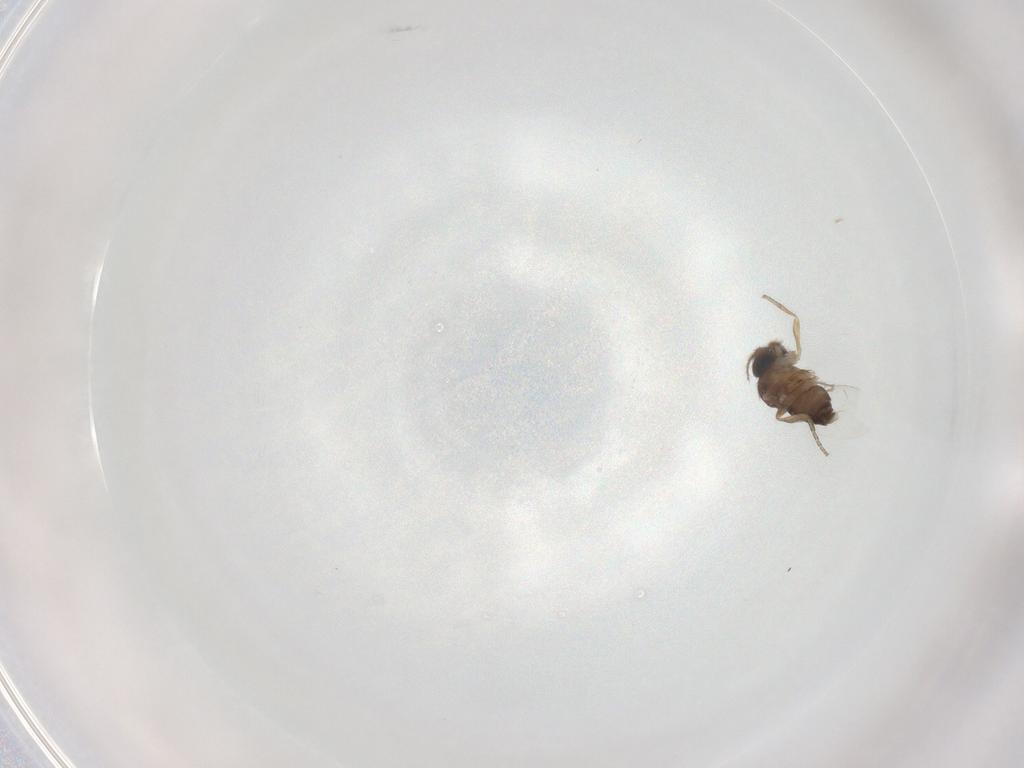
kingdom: Animalia
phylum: Arthropoda
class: Insecta
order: Diptera
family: Phoridae
